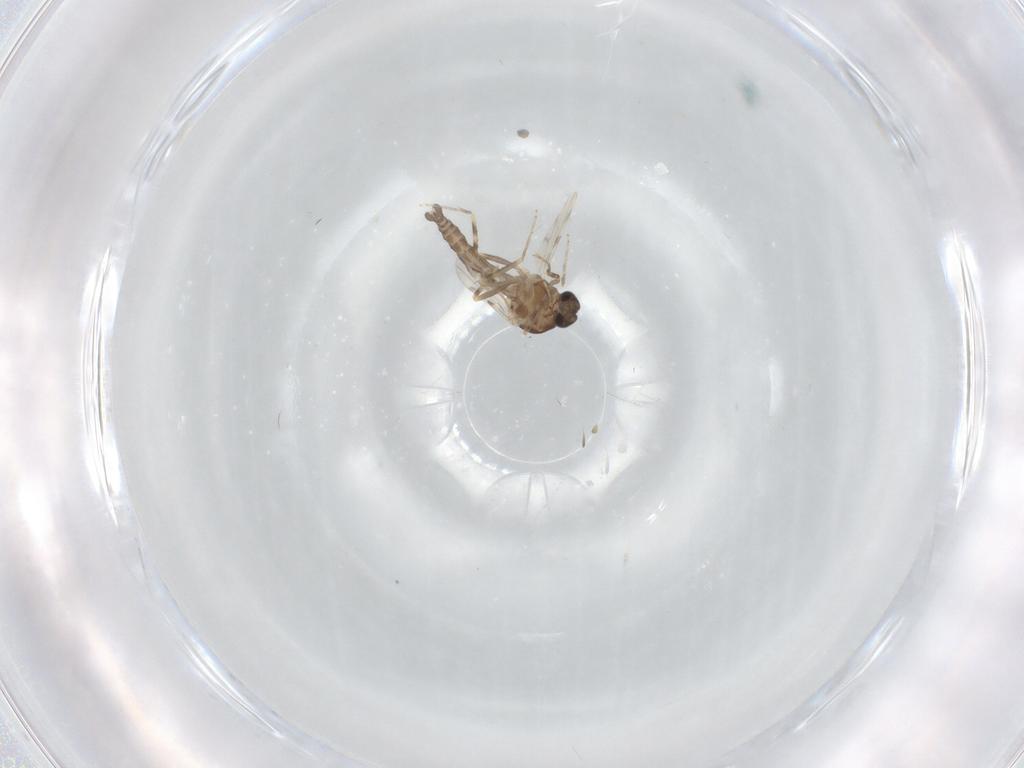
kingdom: Animalia
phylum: Arthropoda
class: Insecta
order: Diptera
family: Ceratopogonidae
